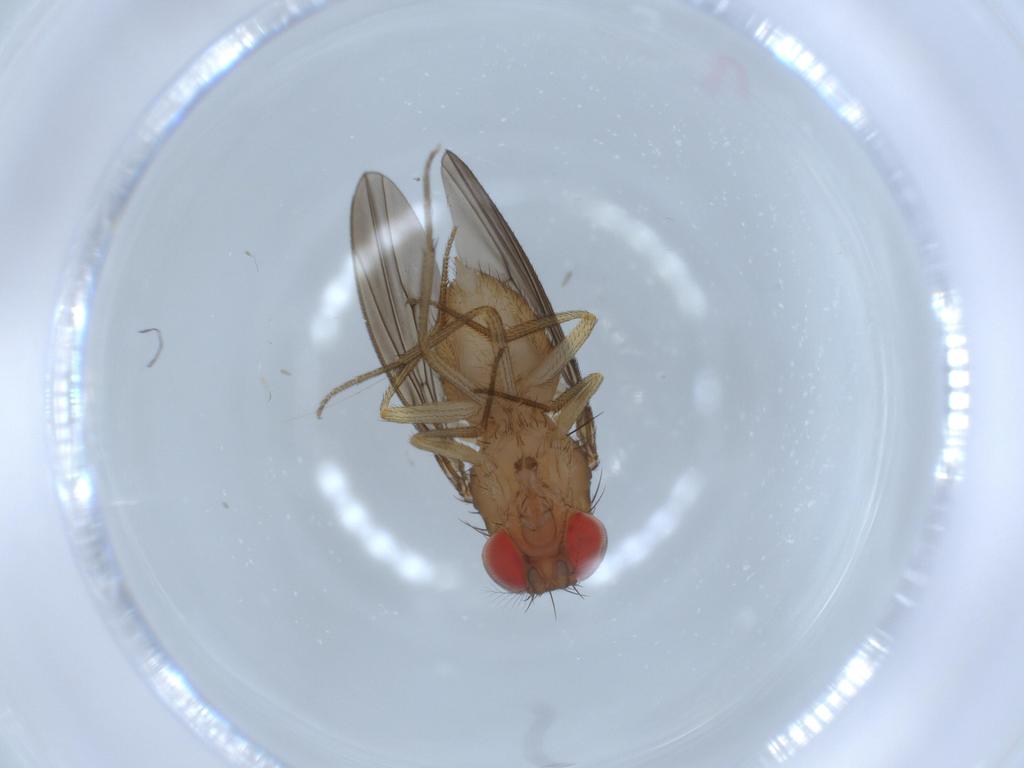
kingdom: Animalia
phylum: Arthropoda
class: Insecta
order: Diptera
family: Drosophilidae
